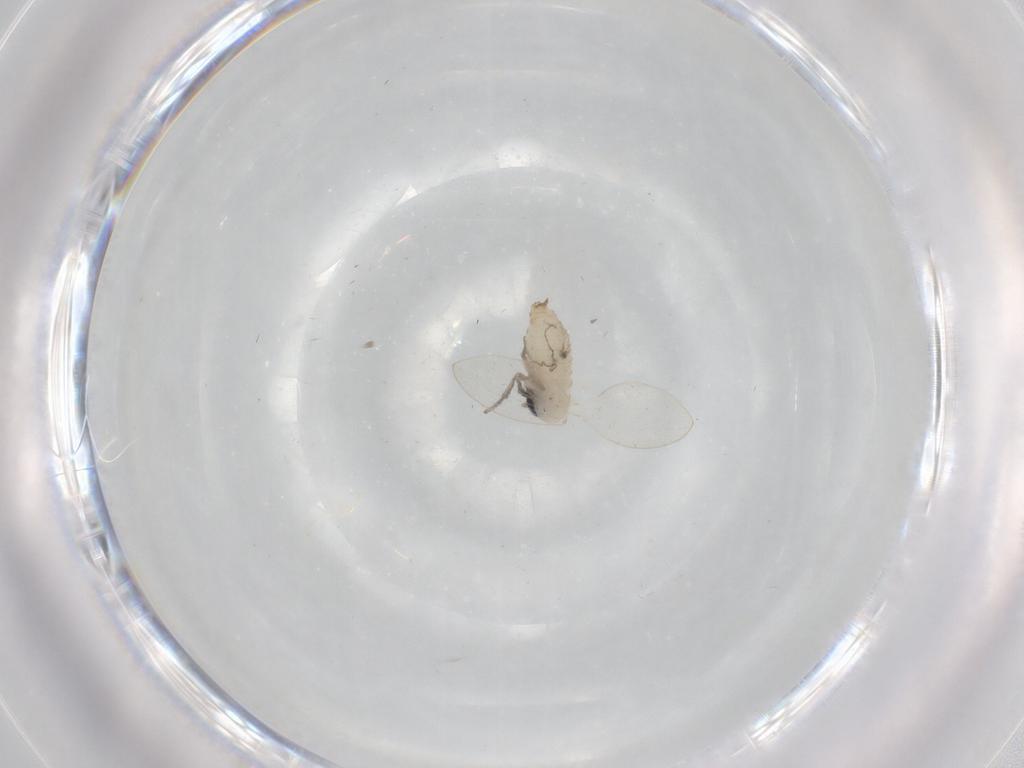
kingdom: Animalia
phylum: Arthropoda
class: Insecta
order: Diptera
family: Psychodidae
